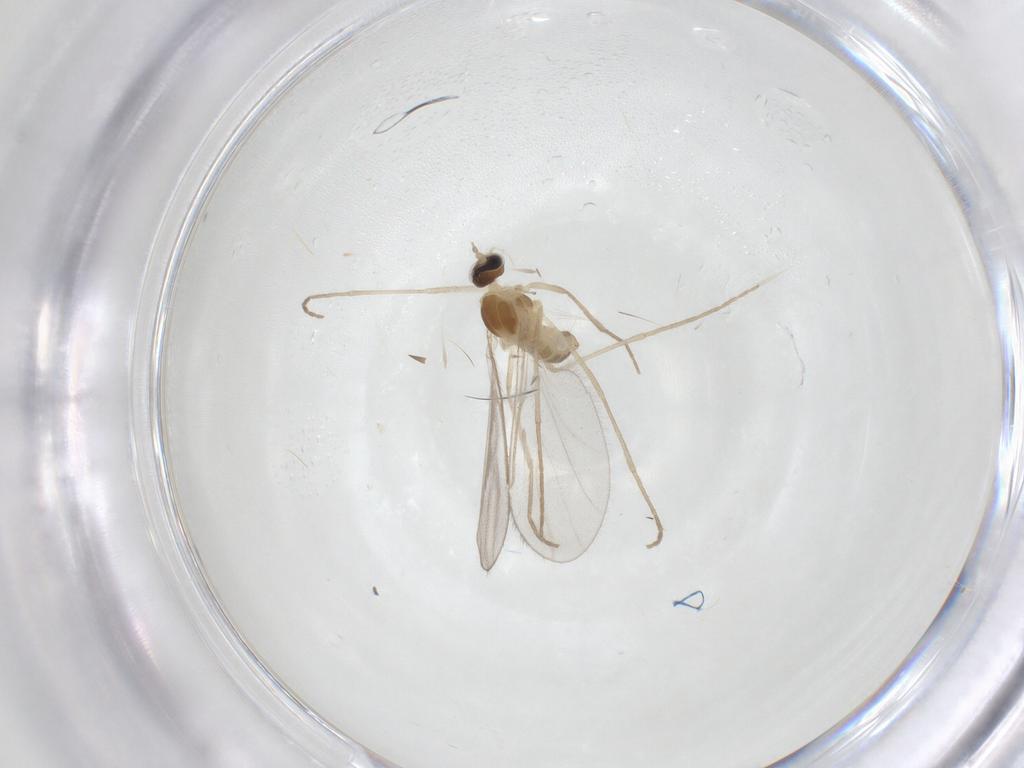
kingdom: Animalia
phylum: Arthropoda
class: Insecta
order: Diptera
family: Cecidomyiidae
